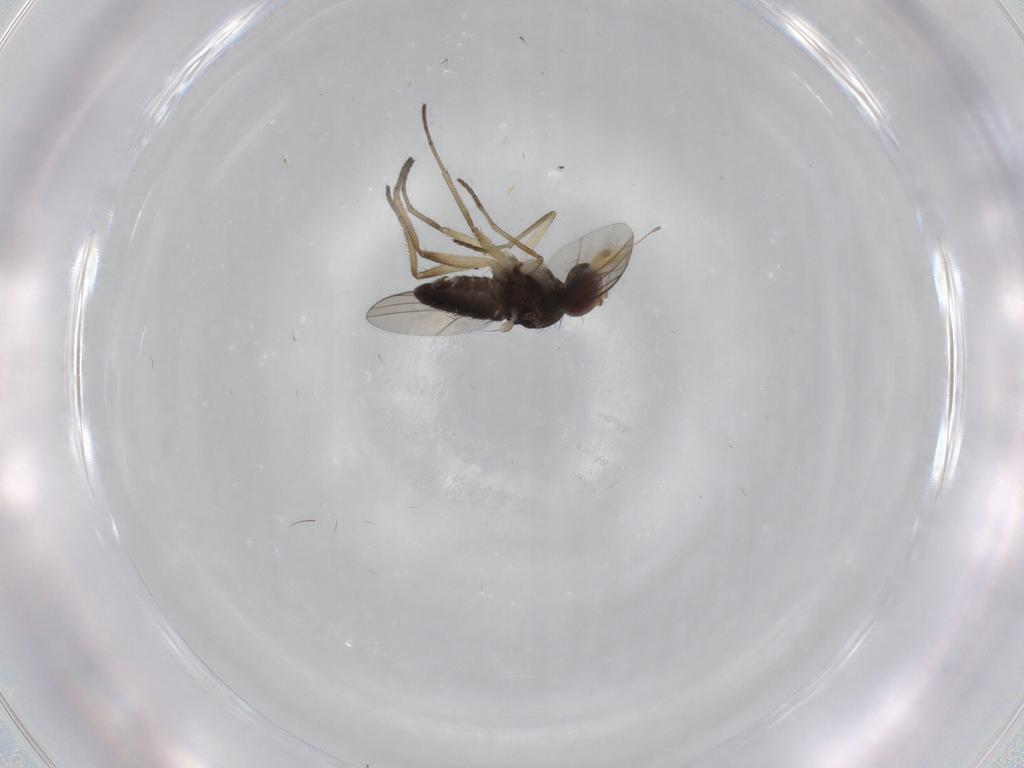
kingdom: Animalia
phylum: Arthropoda
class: Insecta
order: Diptera
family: Dolichopodidae
